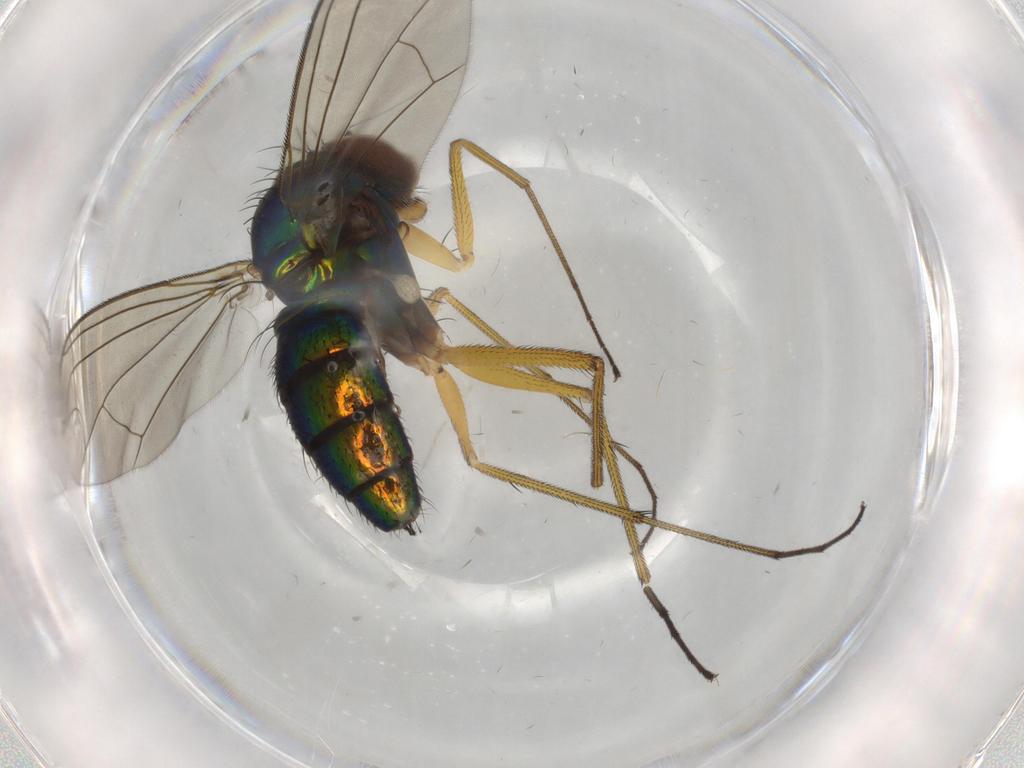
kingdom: Animalia
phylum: Arthropoda
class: Insecta
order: Diptera
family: Dolichopodidae
